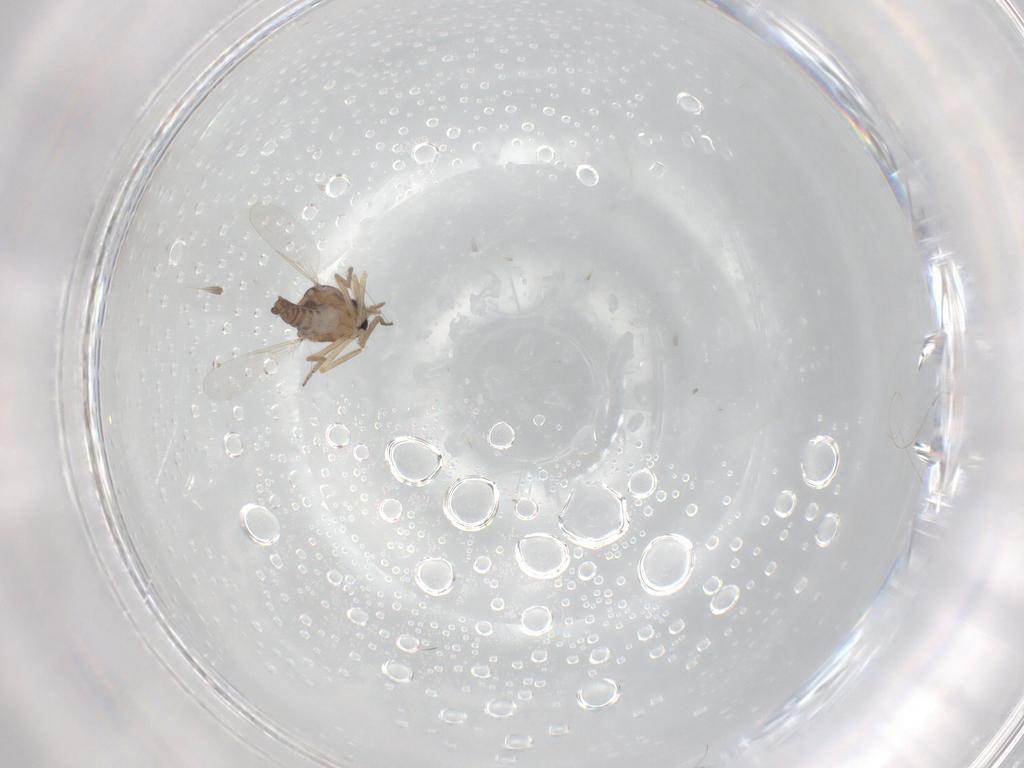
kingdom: Animalia
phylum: Arthropoda
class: Insecta
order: Diptera
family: Ceratopogonidae
